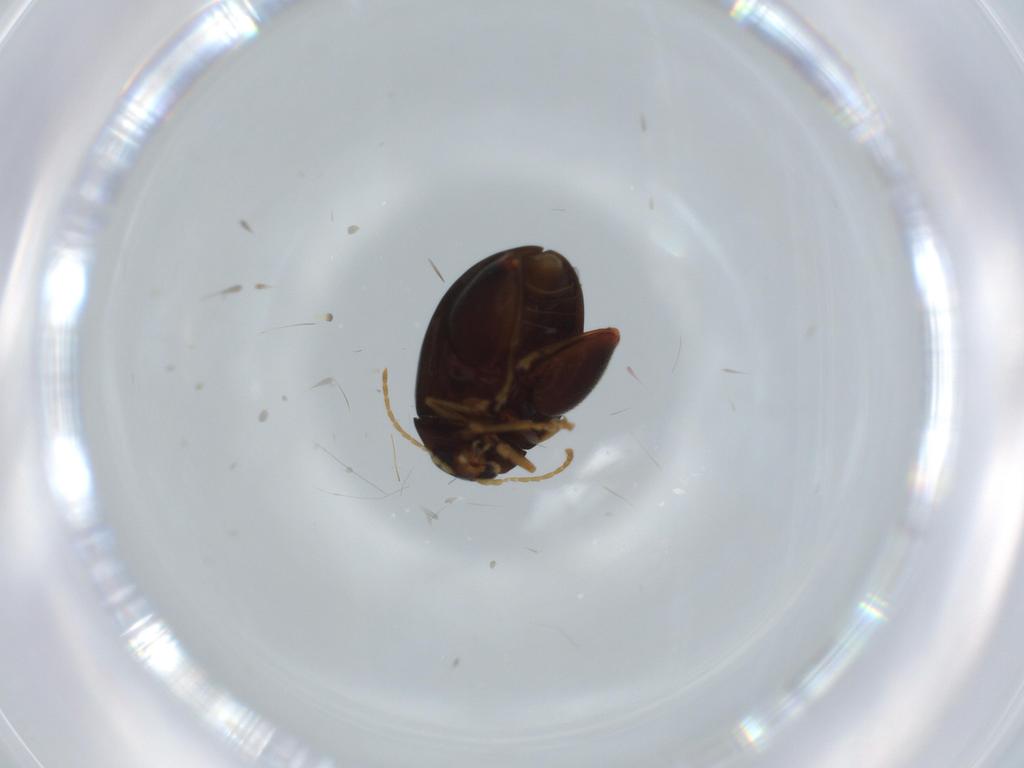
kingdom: Animalia
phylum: Arthropoda
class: Insecta
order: Coleoptera
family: Chrysomelidae
